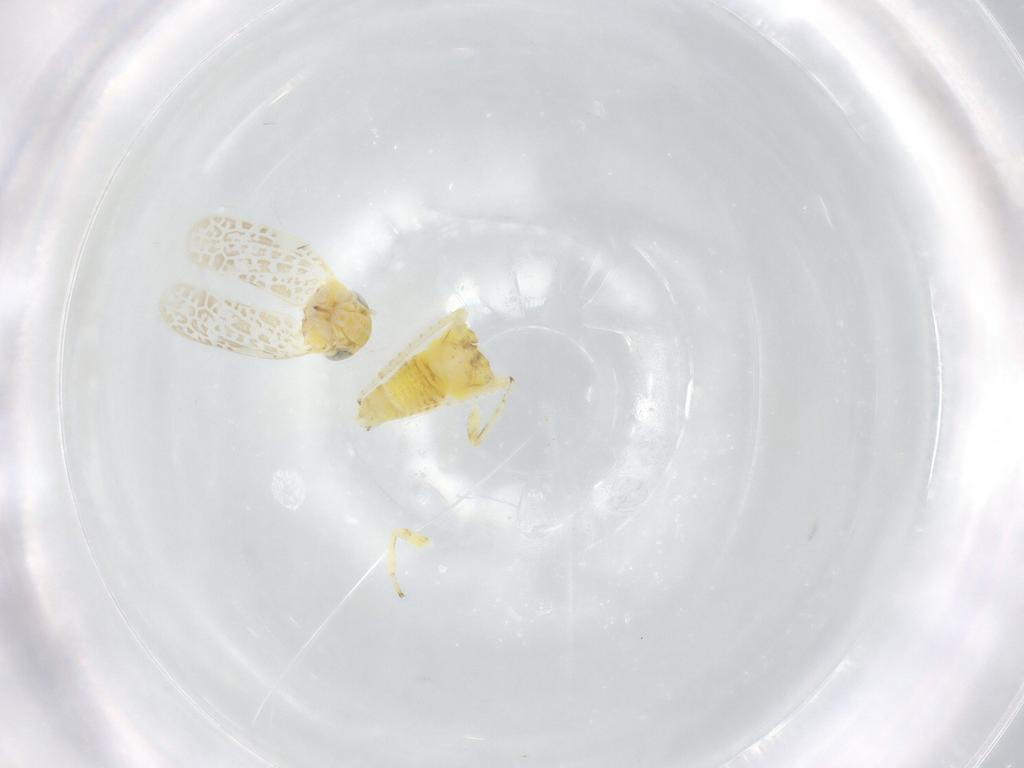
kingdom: Animalia
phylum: Arthropoda
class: Insecta
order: Hemiptera
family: Cicadellidae
